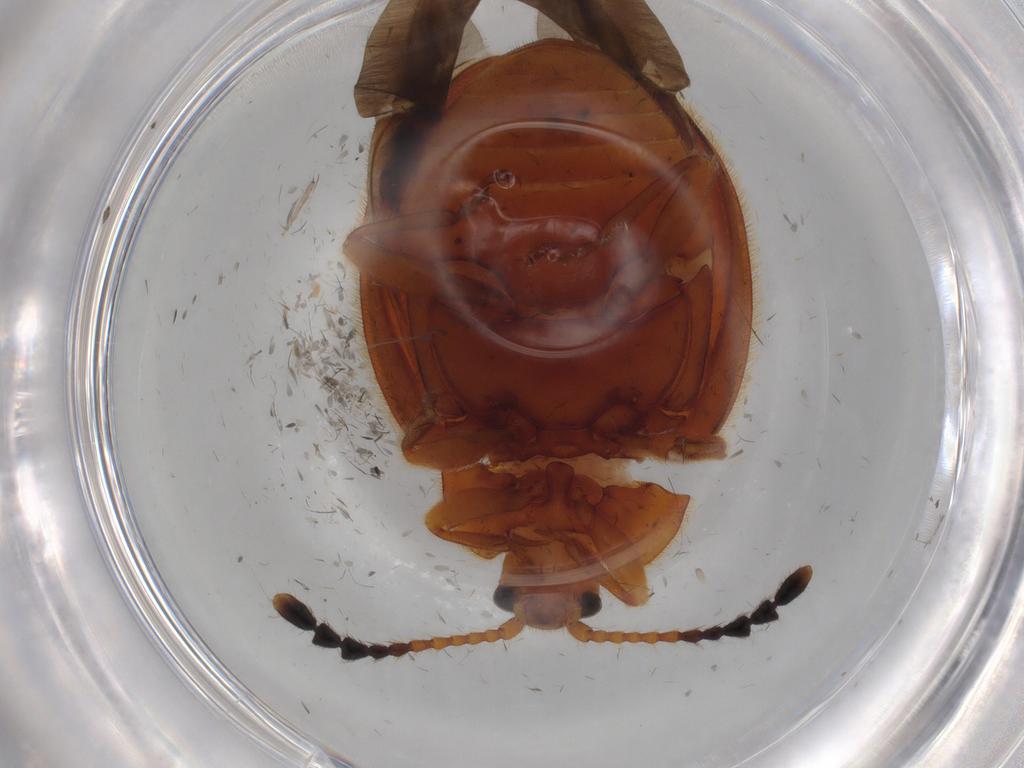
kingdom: Animalia
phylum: Arthropoda
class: Insecta
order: Coleoptera
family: Endomychidae
